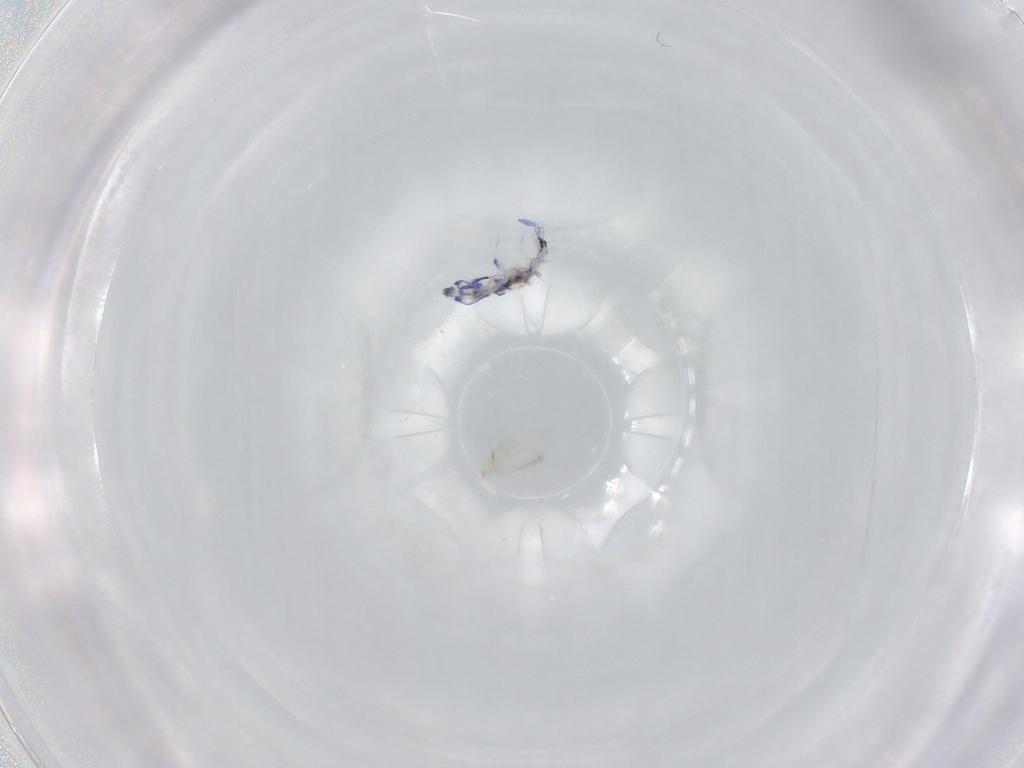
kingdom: Animalia
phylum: Arthropoda
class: Collembola
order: Entomobryomorpha
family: Entomobryidae
